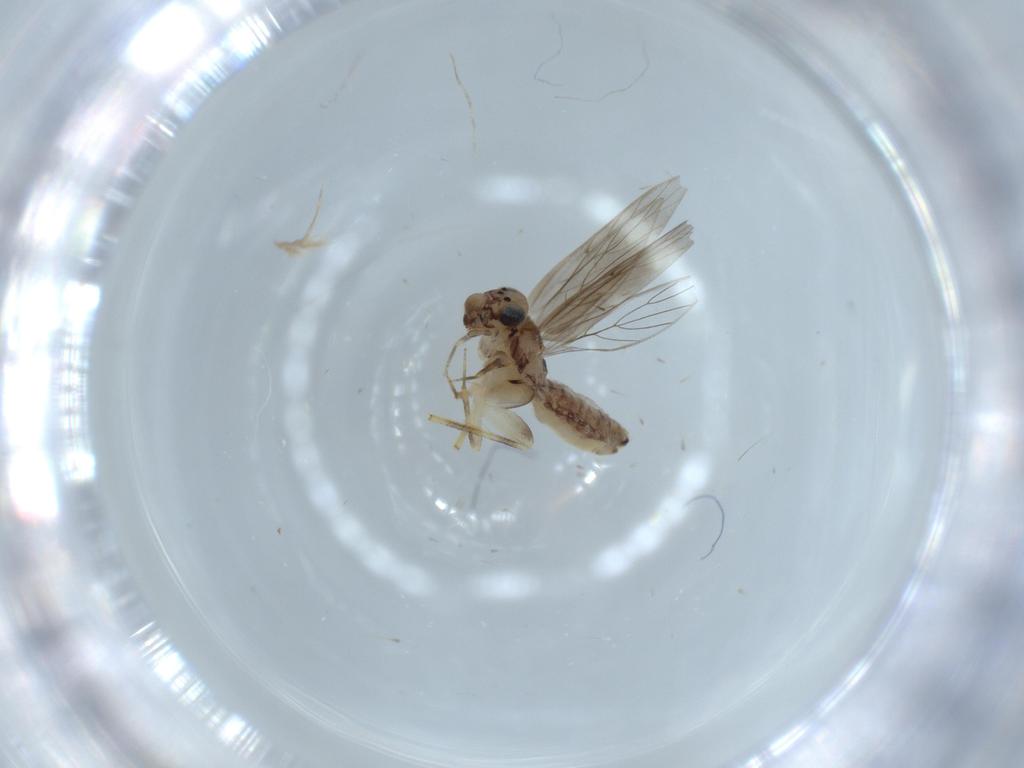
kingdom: Animalia
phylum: Arthropoda
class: Insecta
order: Psocodea
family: Lepidopsocidae
